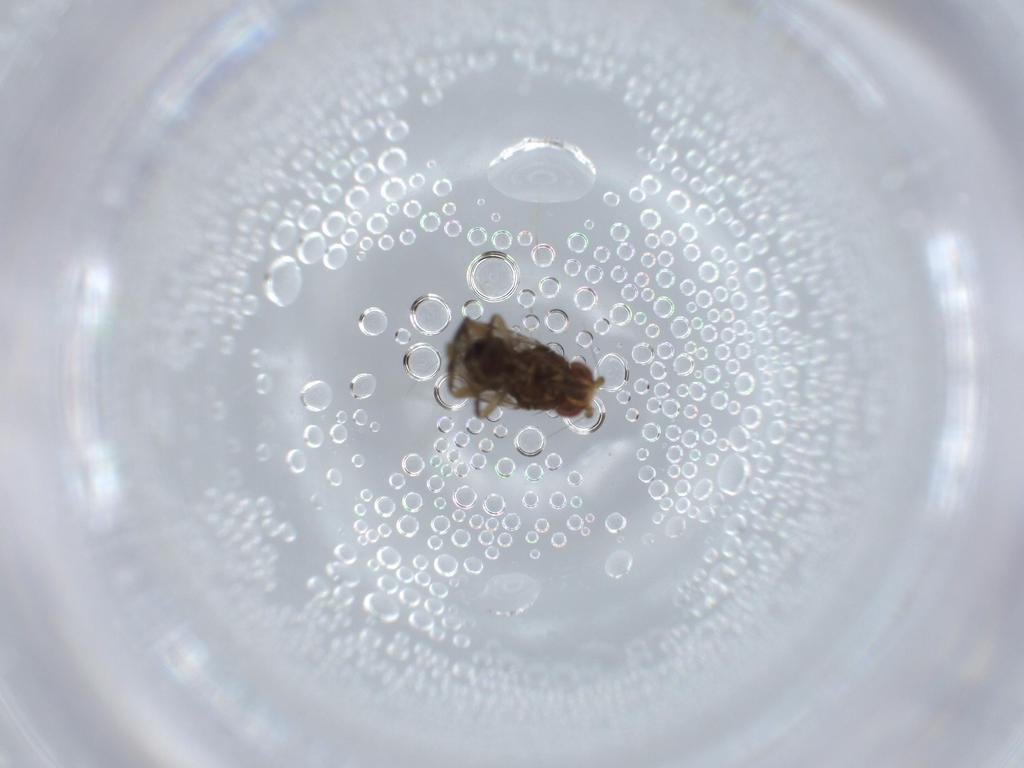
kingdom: Animalia
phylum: Arthropoda
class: Insecta
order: Diptera
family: Sphaeroceridae
